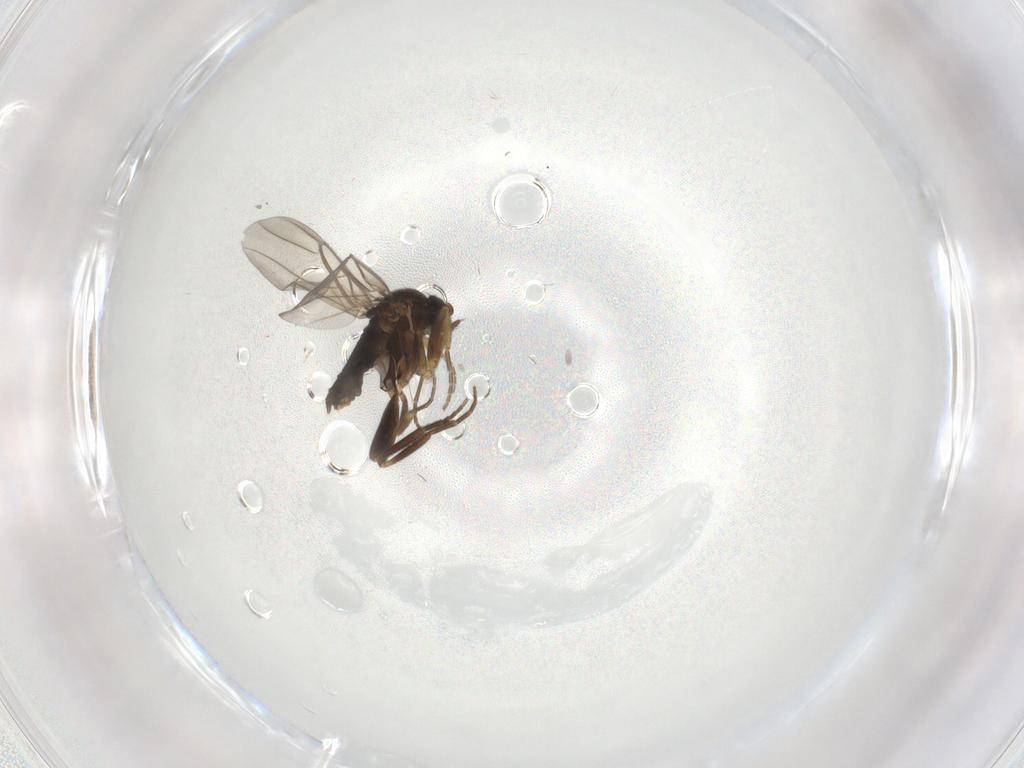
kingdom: Animalia
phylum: Arthropoda
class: Insecta
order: Diptera
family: Phoridae
